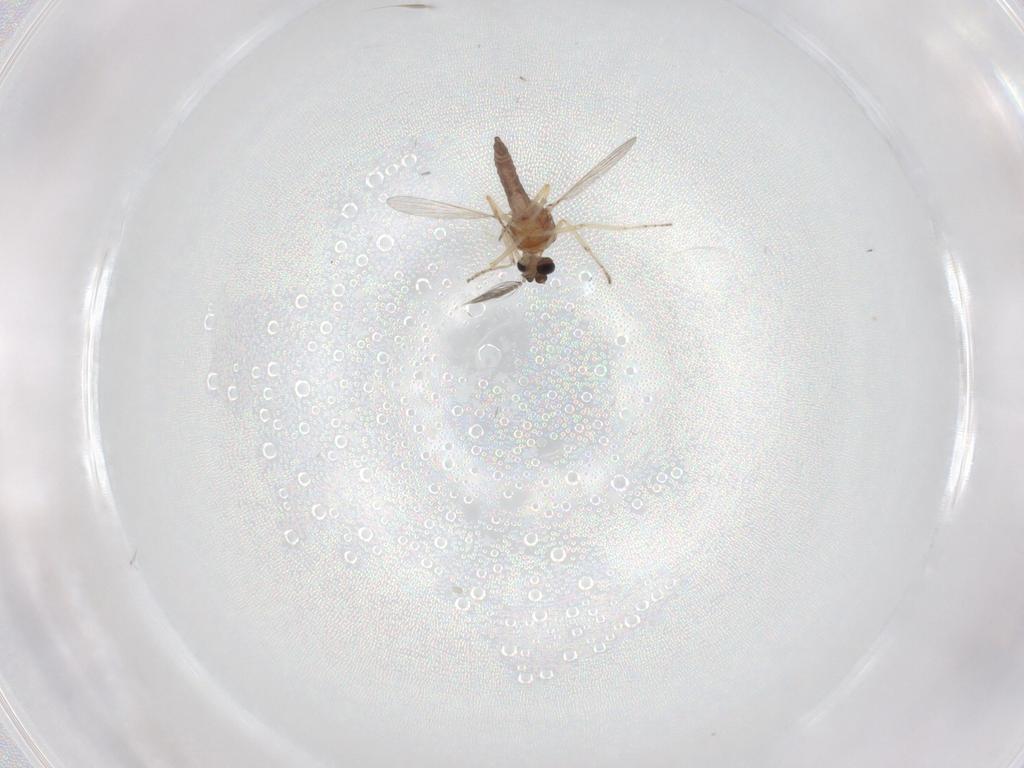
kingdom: Animalia
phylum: Arthropoda
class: Insecta
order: Diptera
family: Ceratopogonidae
